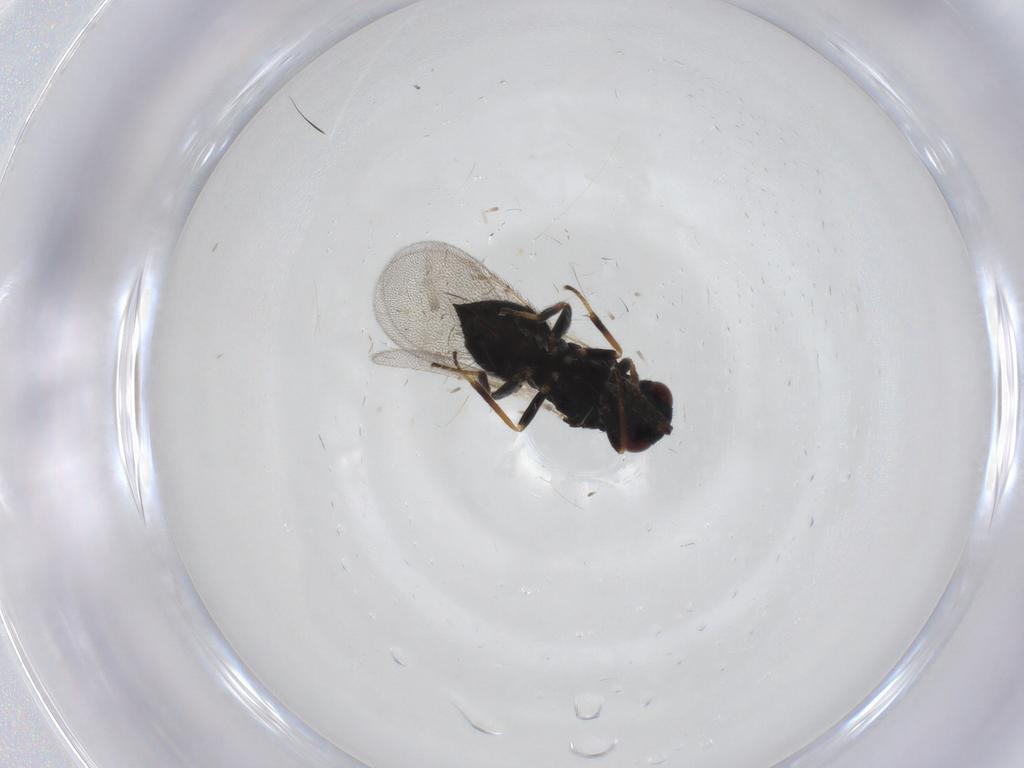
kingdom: Animalia
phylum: Arthropoda
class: Insecta
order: Hymenoptera
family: Eulophidae
